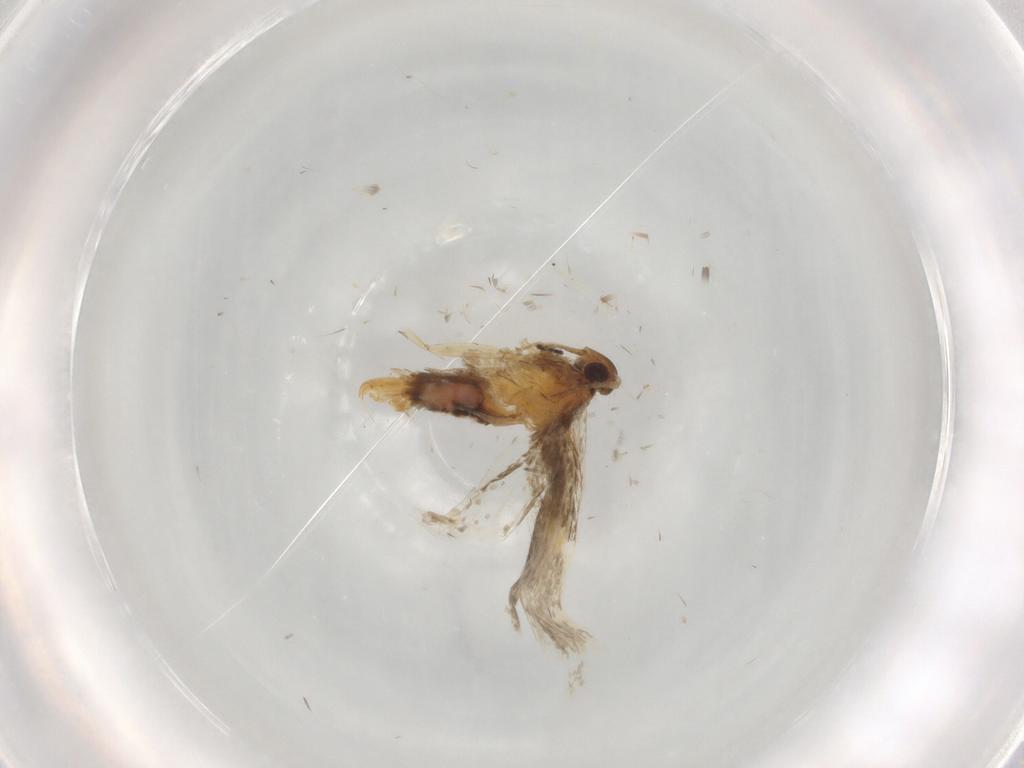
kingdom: Animalia
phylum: Arthropoda
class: Insecta
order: Lepidoptera
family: Oecophoridae
